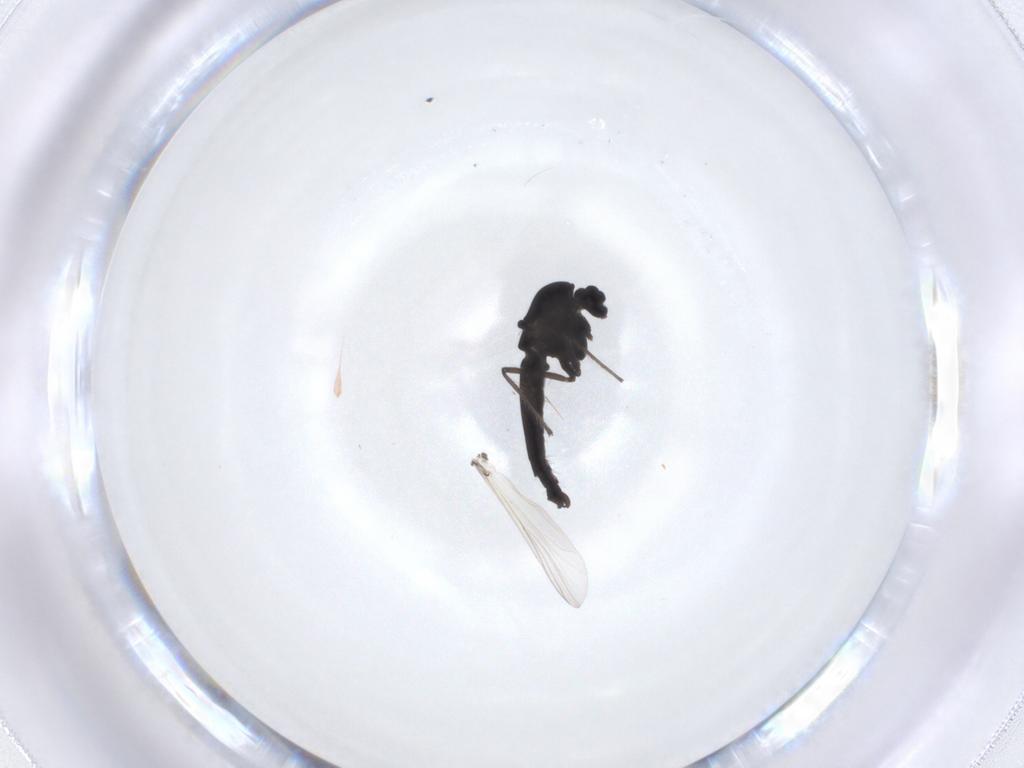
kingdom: Animalia
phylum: Arthropoda
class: Insecta
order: Diptera
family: Chironomidae
